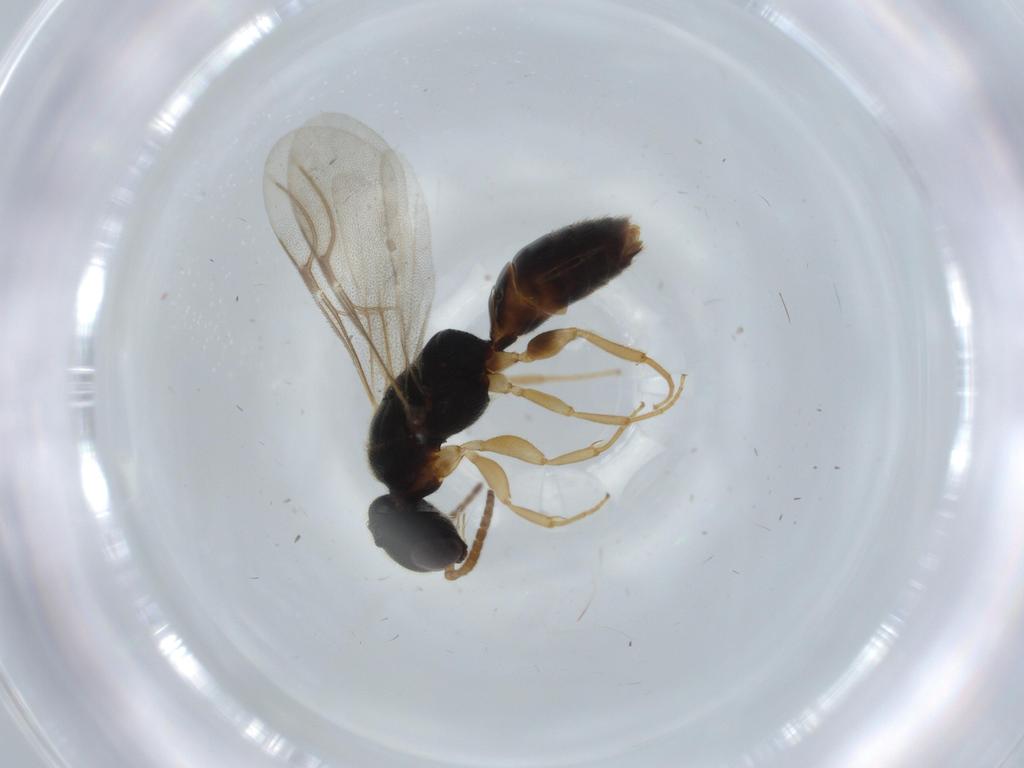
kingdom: Animalia
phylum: Arthropoda
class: Insecta
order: Hymenoptera
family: Bethylidae
